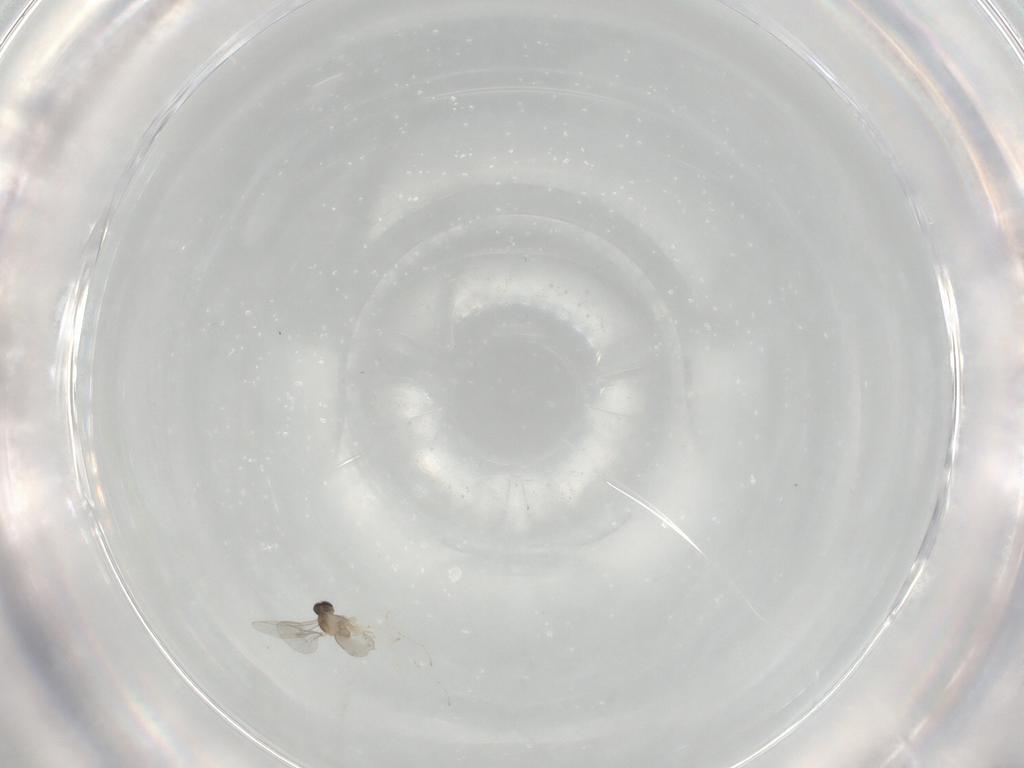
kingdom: Animalia
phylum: Arthropoda
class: Insecta
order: Diptera
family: Cecidomyiidae
